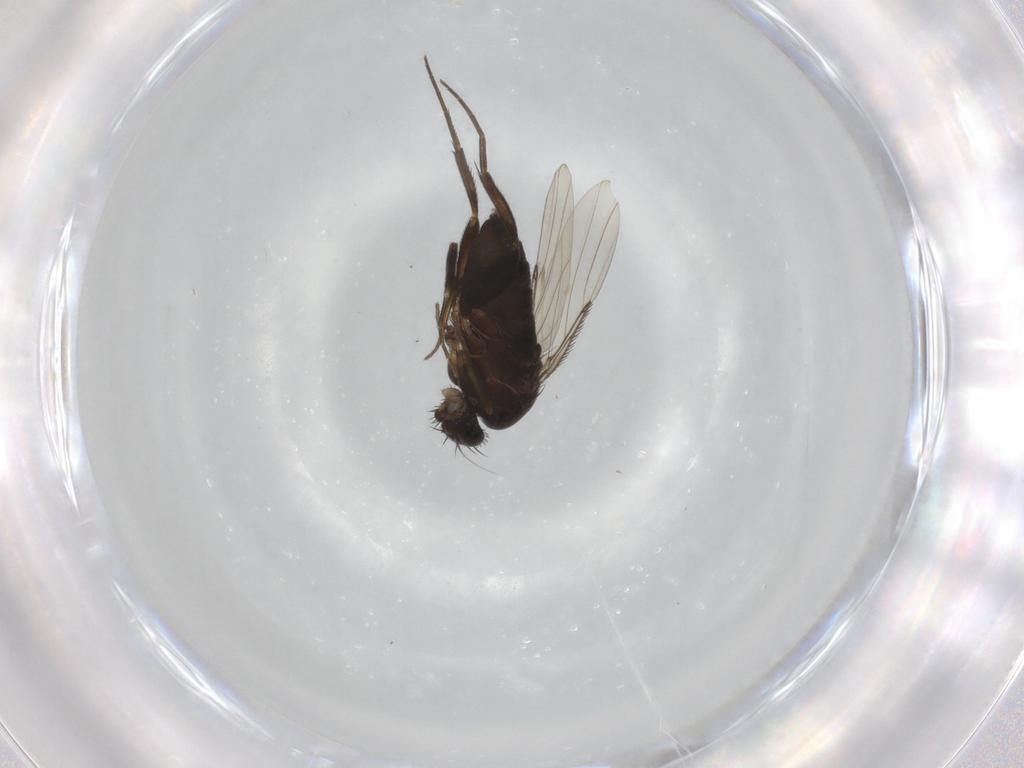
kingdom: Animalia
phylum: Arthropoda
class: Insecta
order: Diptera
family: Phoridae
